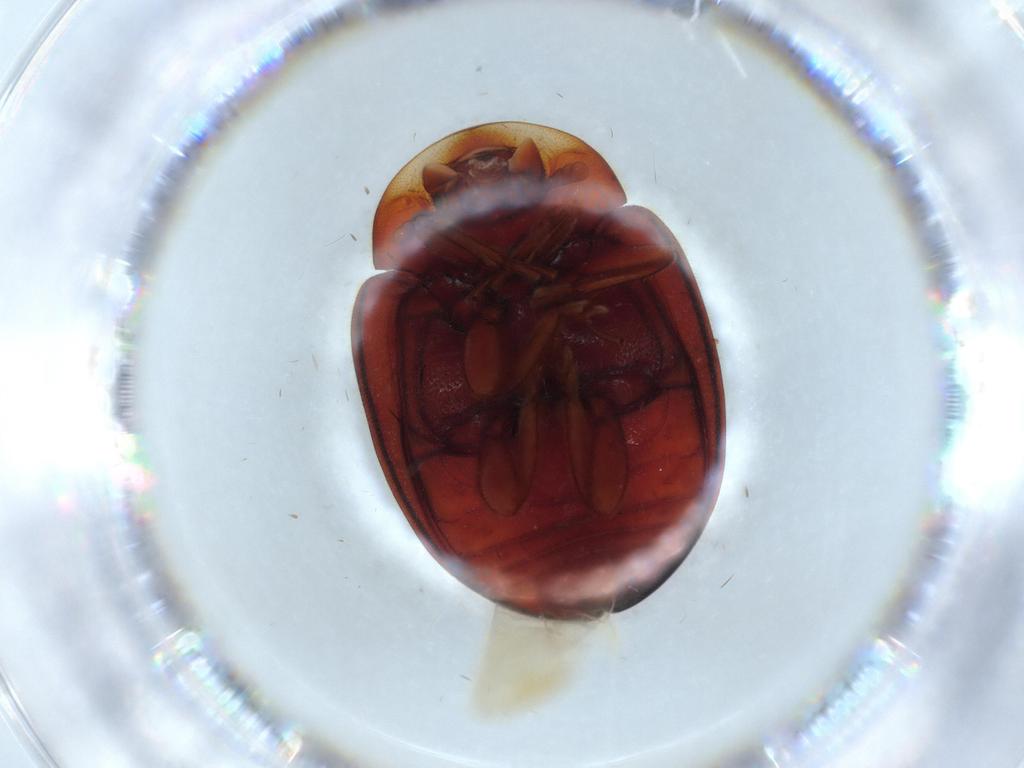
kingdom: Animalia
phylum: Arthropoda
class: Insecta
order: Coleoptera
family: Coccinellidae
